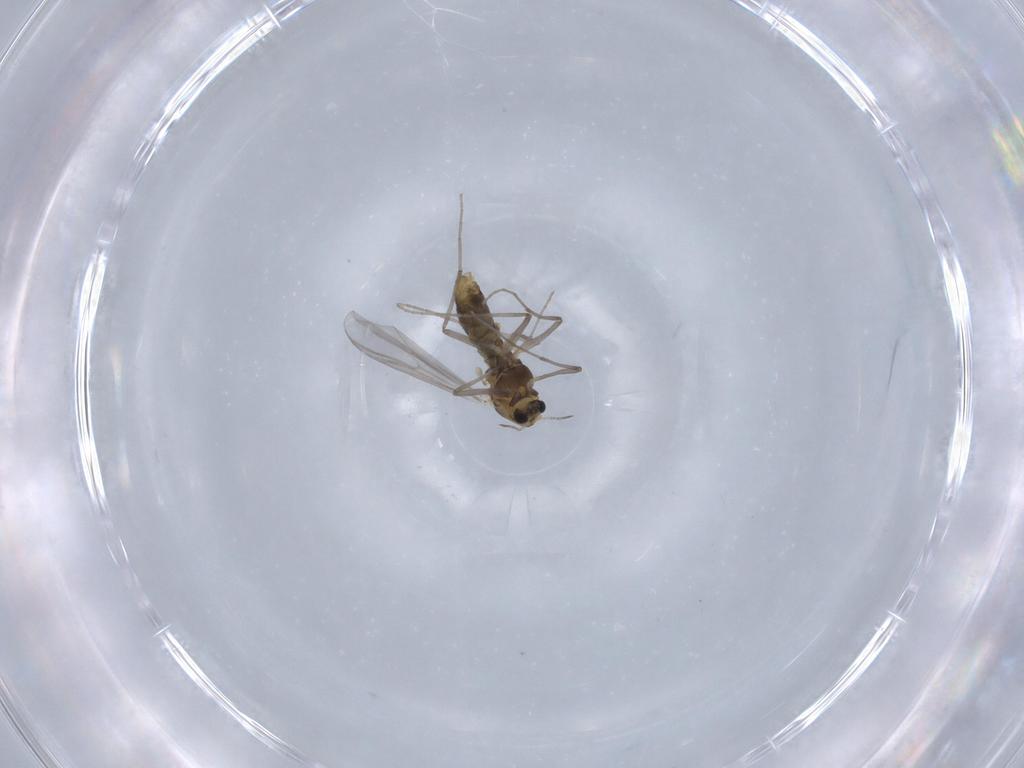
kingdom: Animalia
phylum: Arthropoda
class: Insecta
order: Diptera
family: Chironomidae
